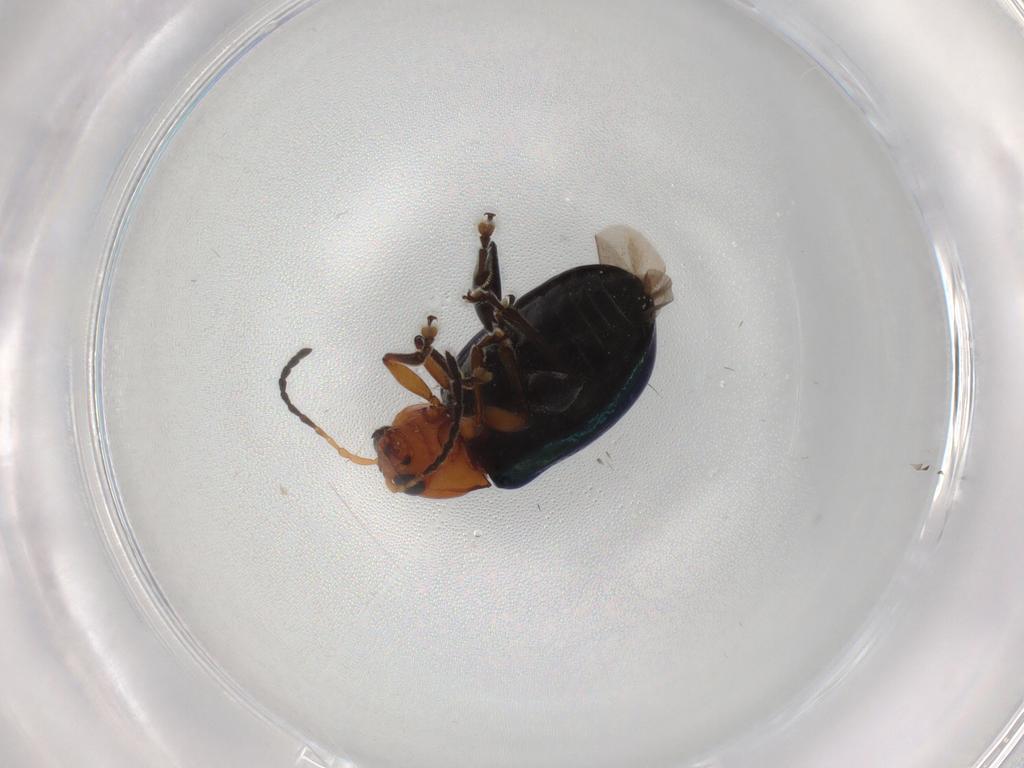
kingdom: Animalia
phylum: Arthropoda
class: Insecta
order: Coleoptera
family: Chrysomelidae
